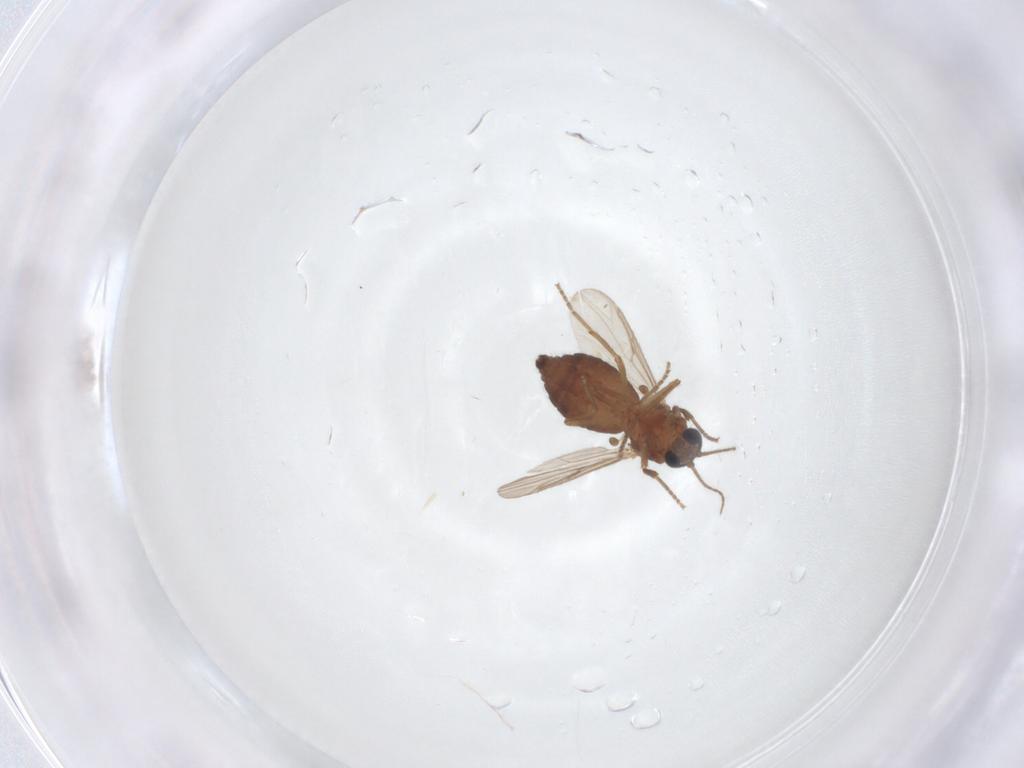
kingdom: Animalia
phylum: Arthropoda
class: Insecta
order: Diptera
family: Ceratopogonidae
